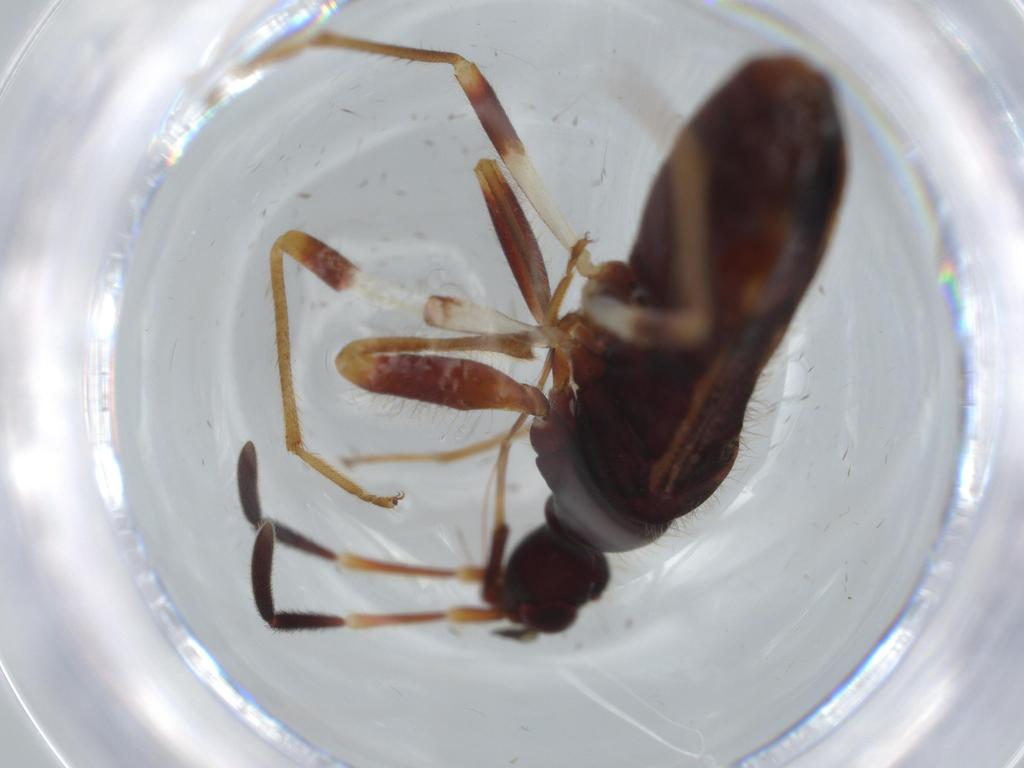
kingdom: Animalia
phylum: Arthropoda
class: Insecta
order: Hemiptera
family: Rhyparochromidae
